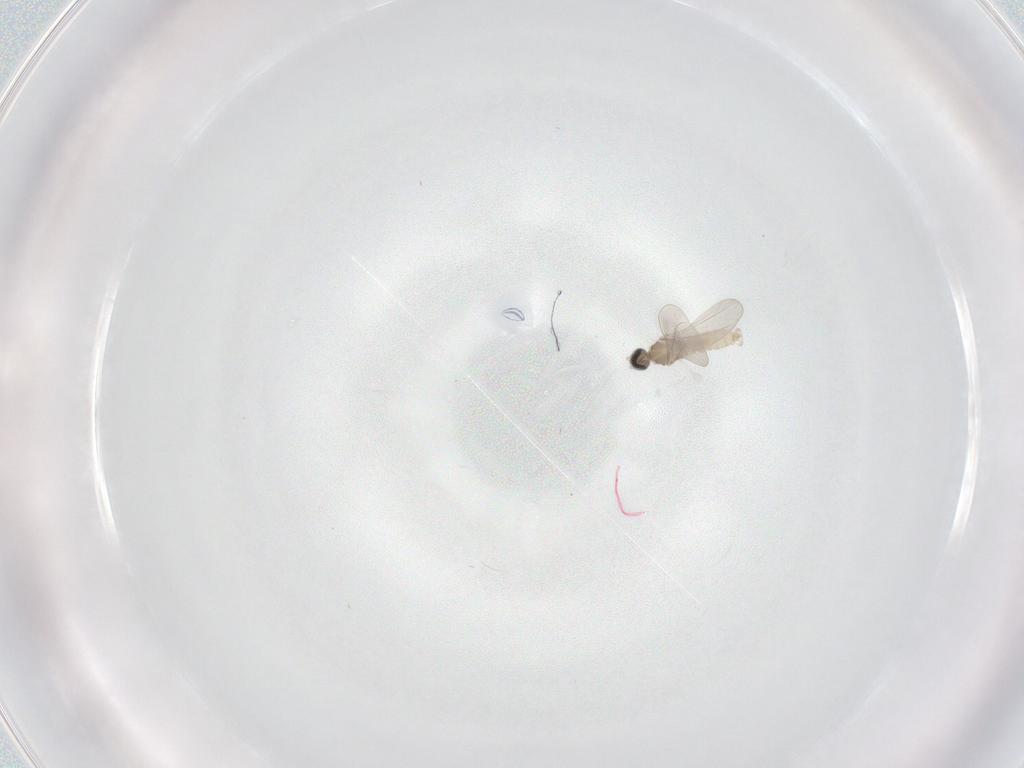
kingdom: Animalia
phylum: Arthropoda
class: Insecta
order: Diptera
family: Cecidomyiidae
